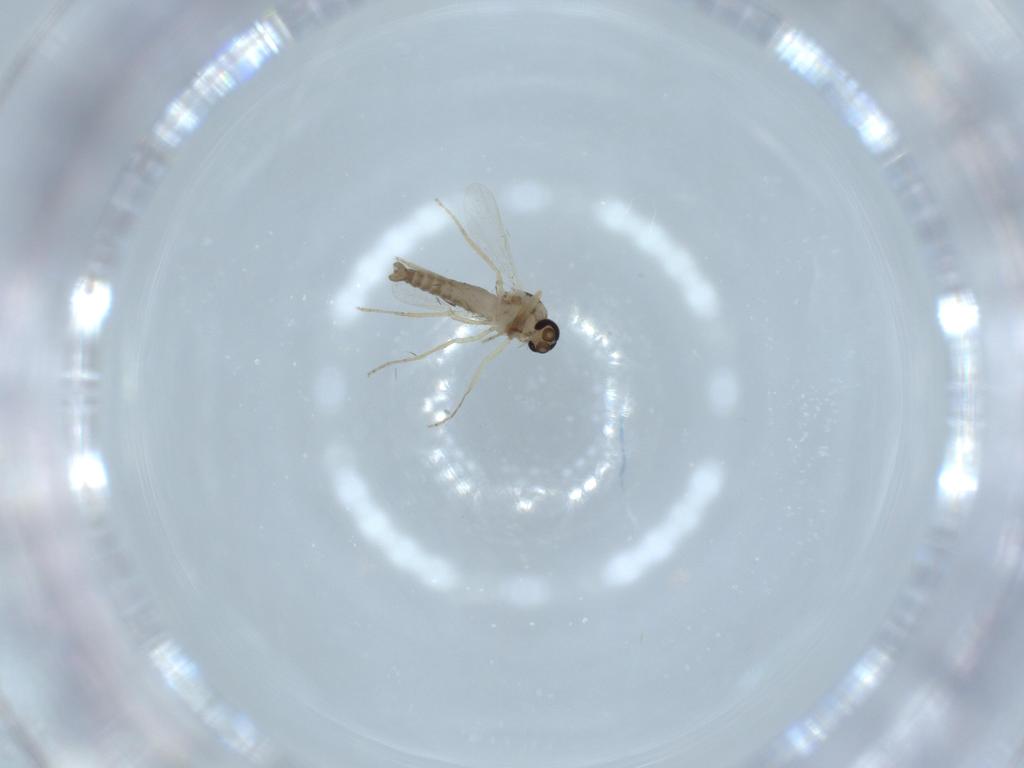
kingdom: Animalia
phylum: Arthropoda
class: Insecta
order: Diptera
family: Ceratopogonidae
